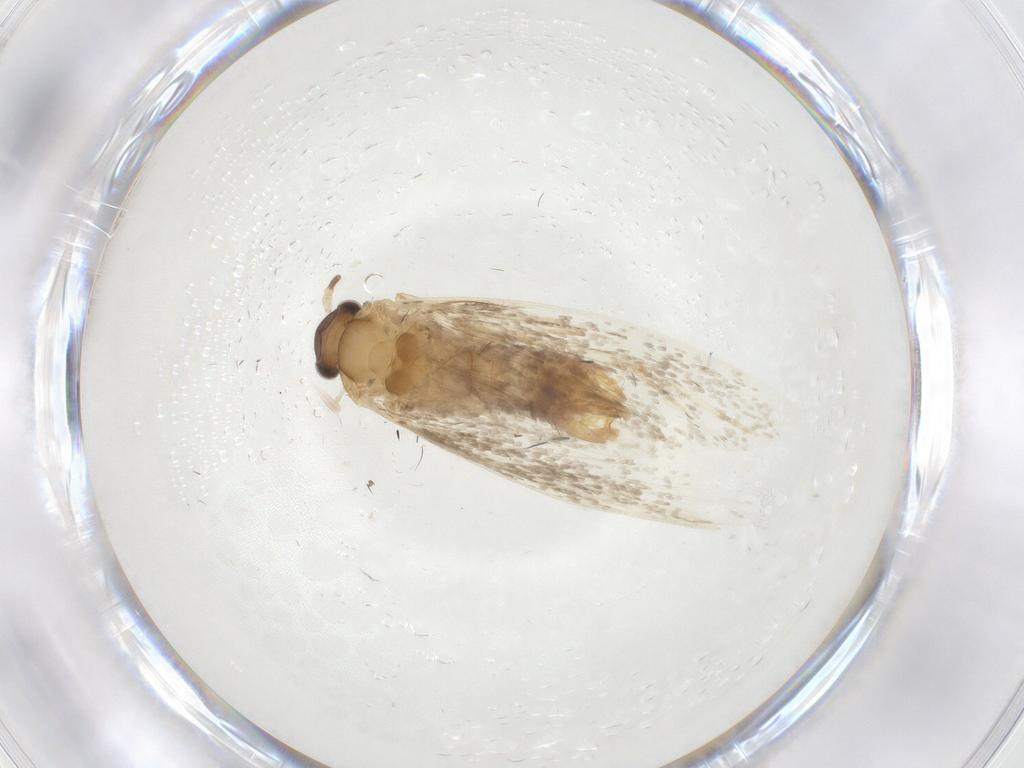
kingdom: Animalia
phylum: Arthropoda
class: Insecta
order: Lepidoptera
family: Dryadaulidae
